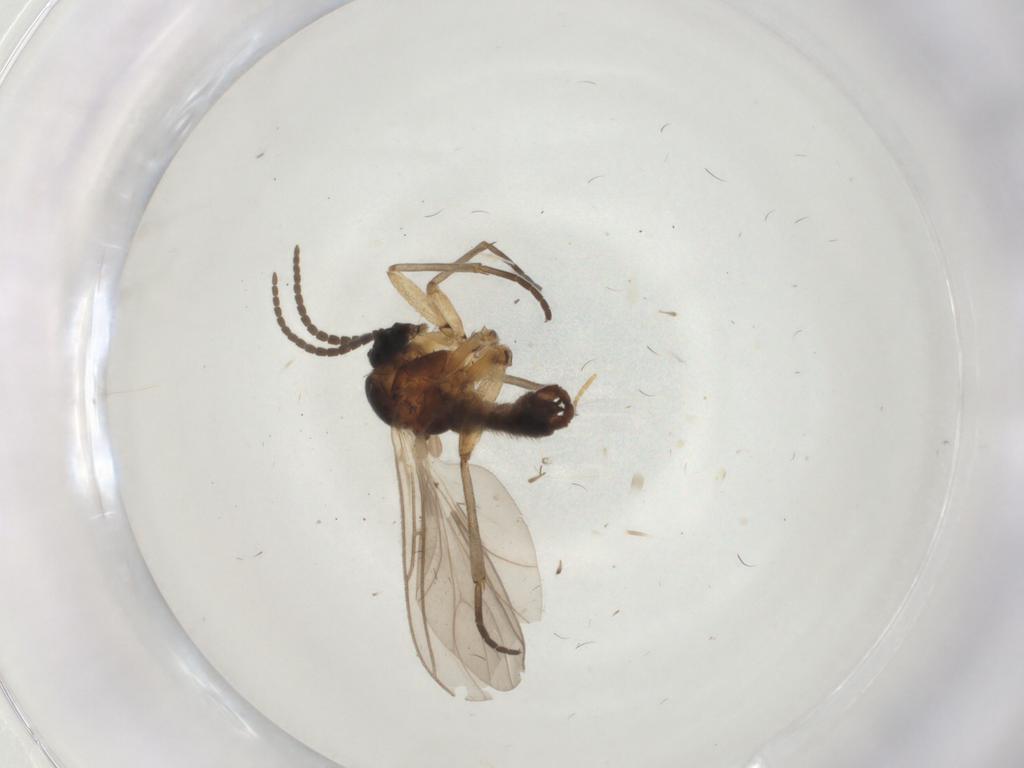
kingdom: Animalia
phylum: Arthropoda
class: Insecta
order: Diptera
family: Sciaridae
